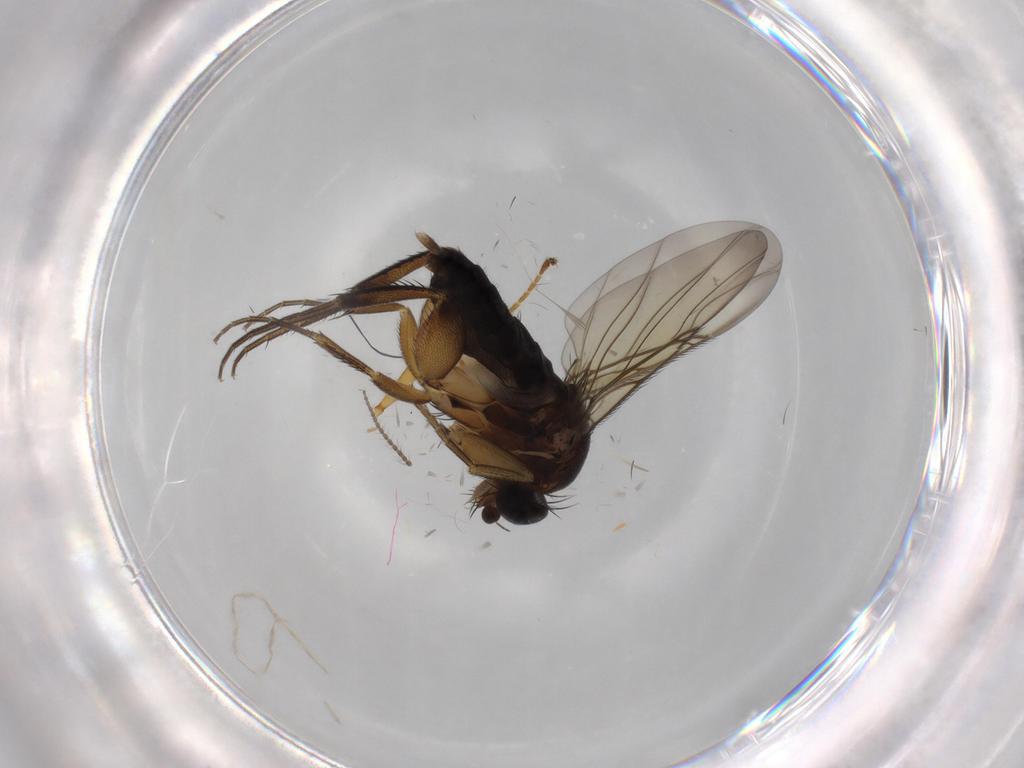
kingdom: Animalia
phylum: Arthropoda
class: Insecta
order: Diptera
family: Phoridae
